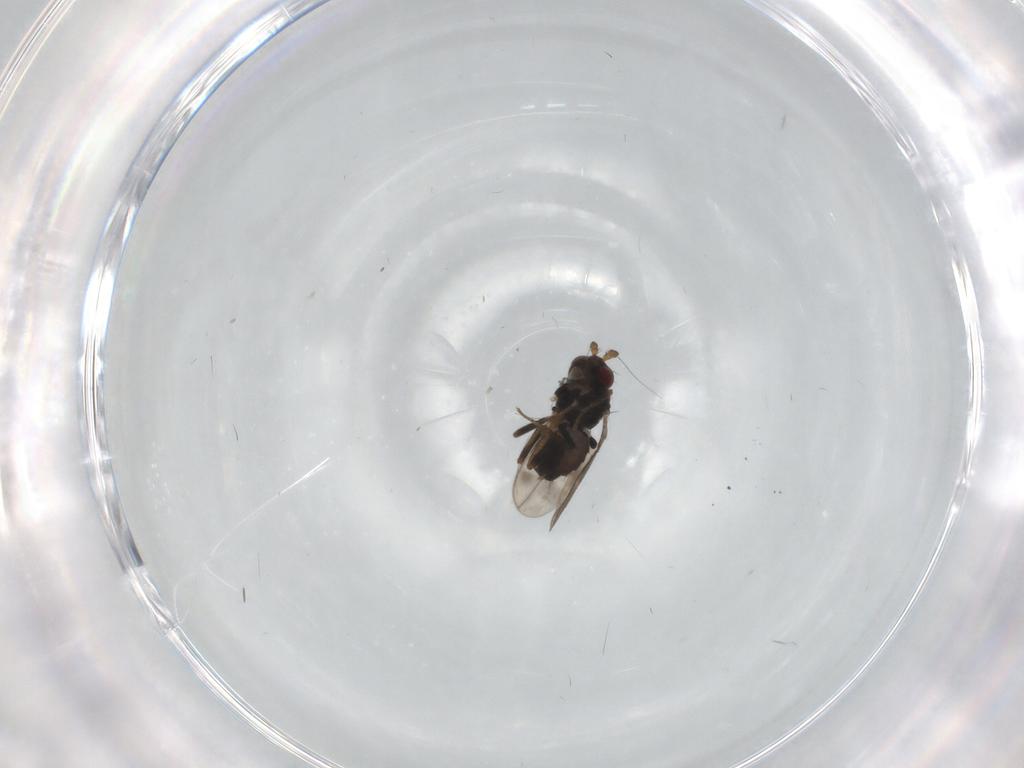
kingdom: Animalia
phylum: Arthropoda
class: Insecta
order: Diptera
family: Sphaeroceridae
